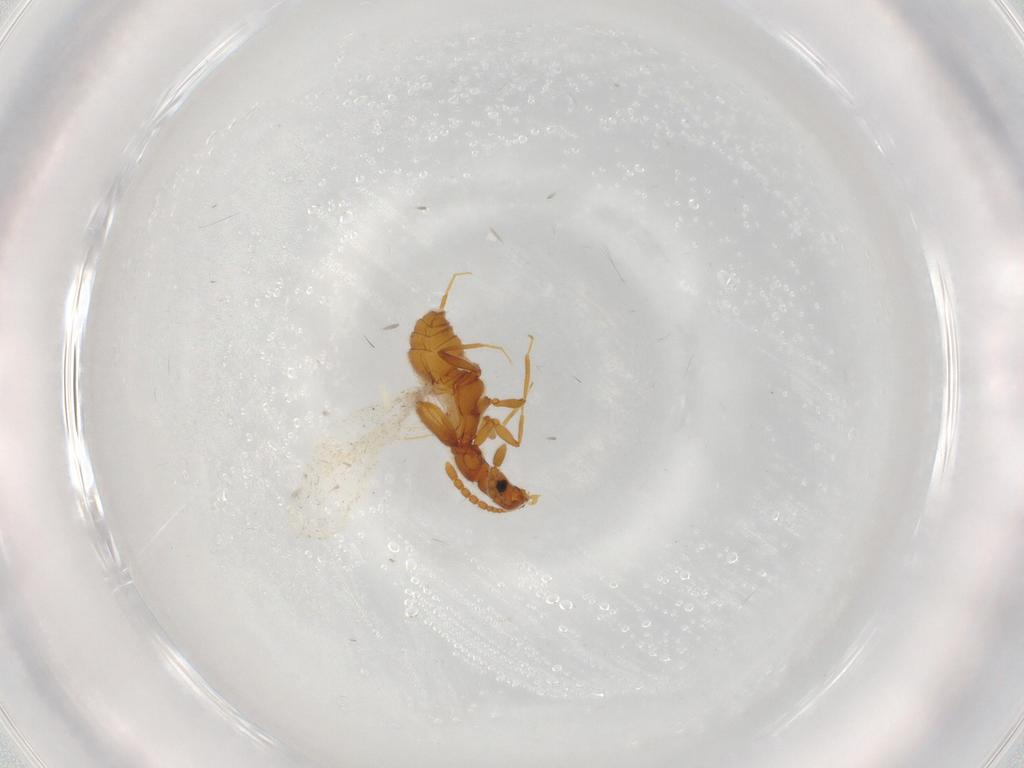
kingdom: Animalia
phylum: Arthropoda
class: Insecta
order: Coleoptera
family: Staphylinidae
